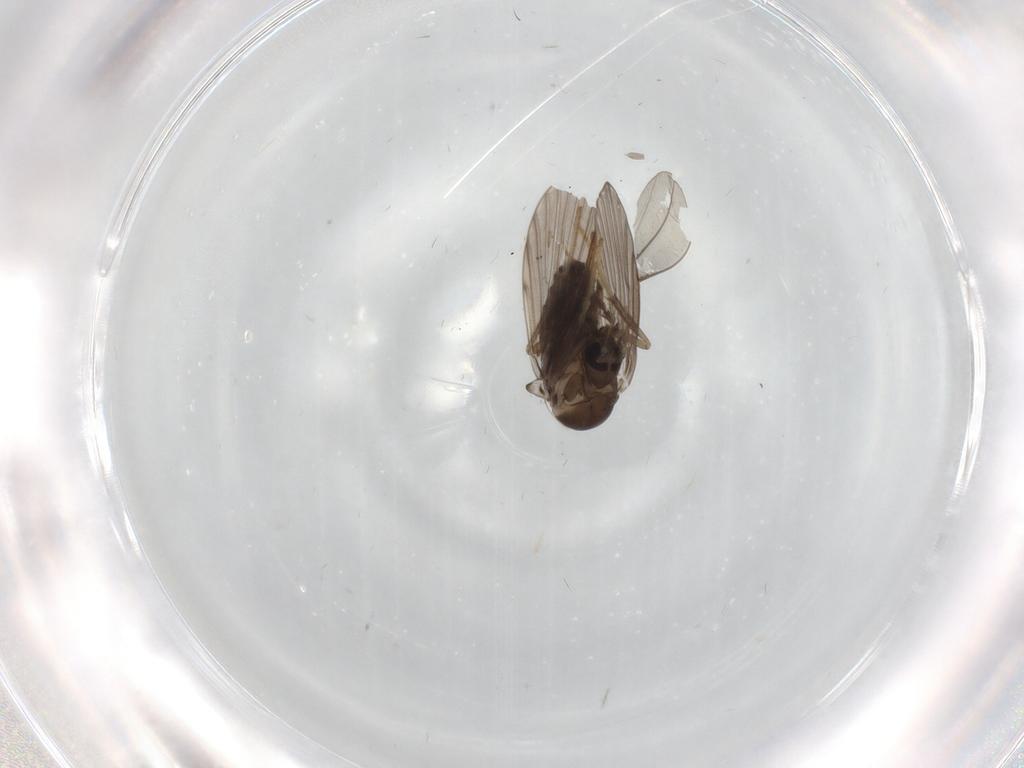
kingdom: Animalia
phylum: Arthropoda
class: Insecta
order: Diptera
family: Psychodidae
